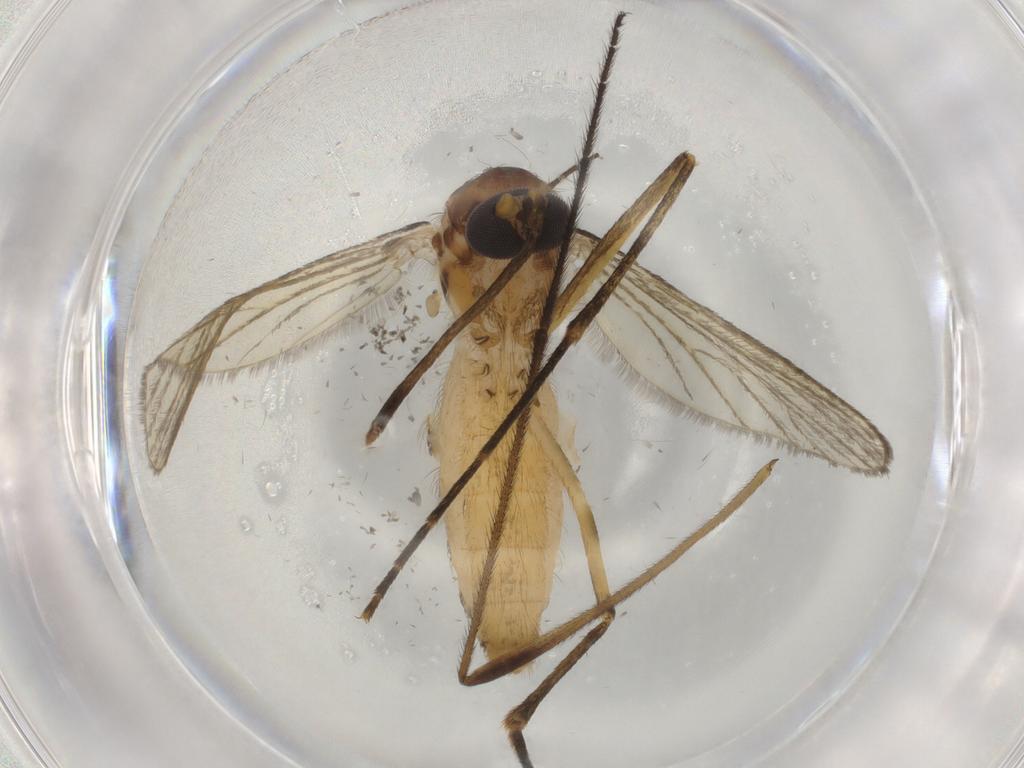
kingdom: Animalia
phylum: Arthropoda
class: Insecta
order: Diptera
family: Culicidae
